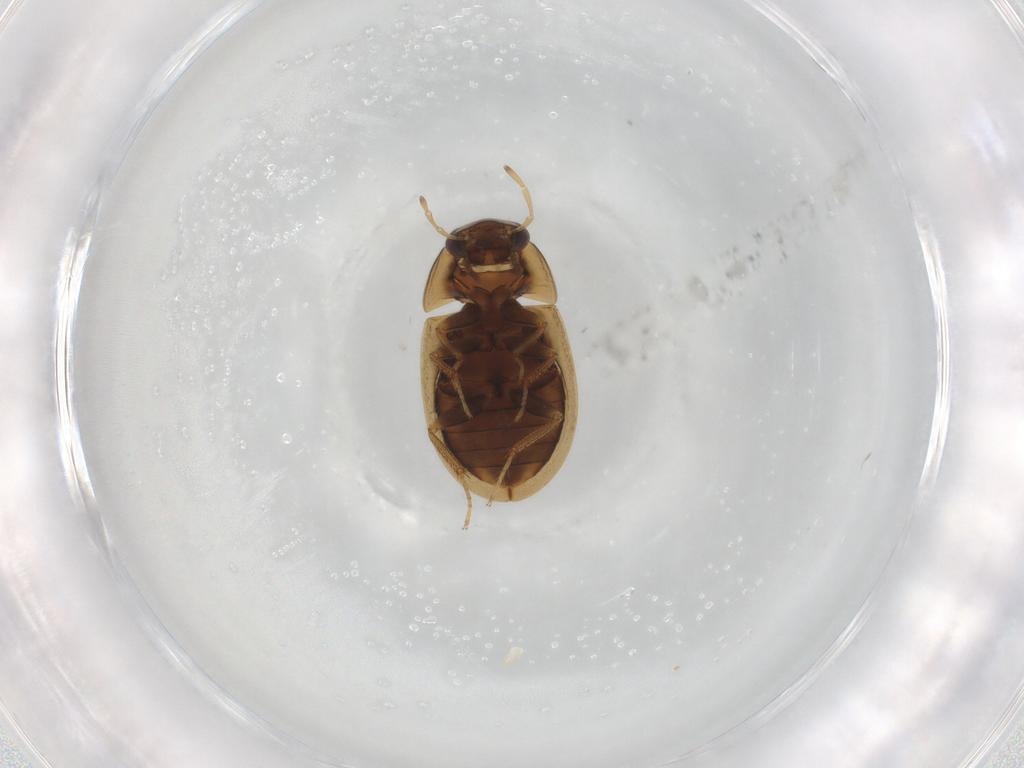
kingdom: Animalia
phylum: Arthropoda
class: Insecta
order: Coleoptera
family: Hydrophilidae
